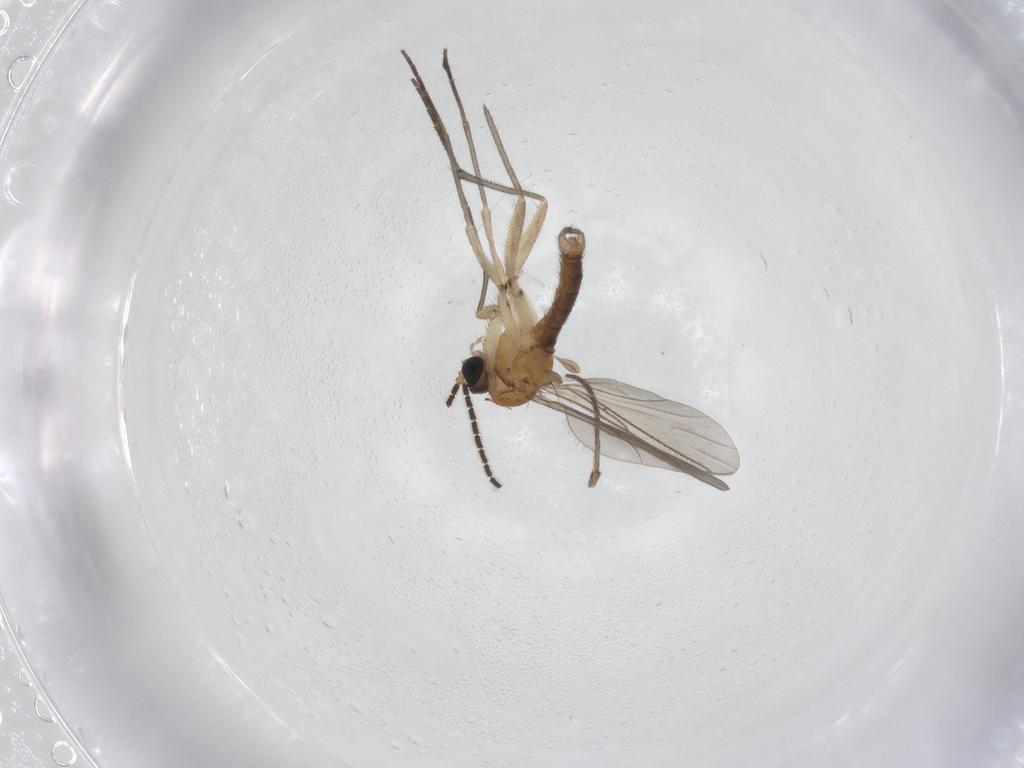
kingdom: Animalia
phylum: Arthropoda
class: Insecta
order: Diptera
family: Sciaridae
